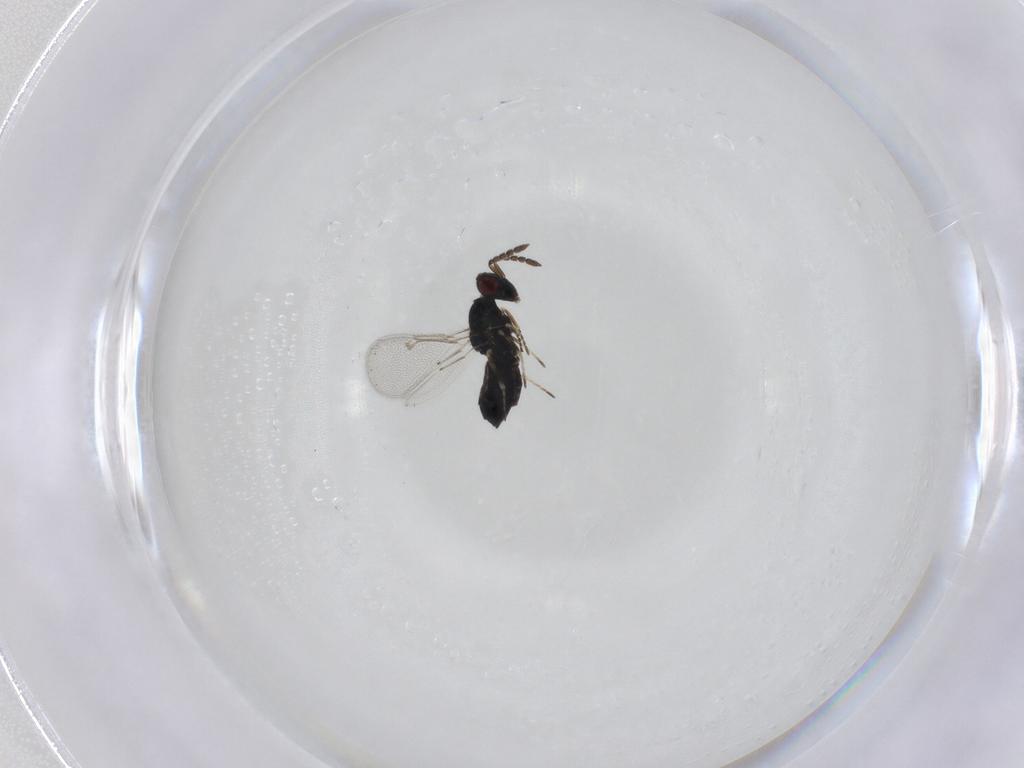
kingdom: Animalia
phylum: Arthropoda
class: Insecta
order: Hymenoptera
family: Eulophidae
